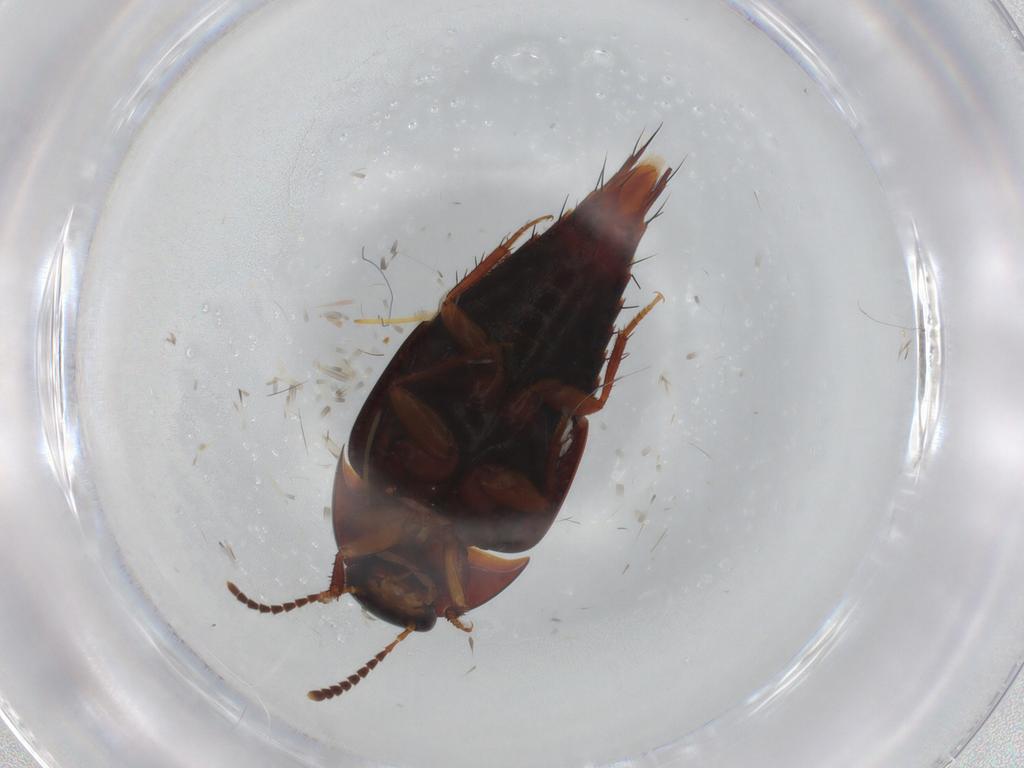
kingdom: Animalia
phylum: Arthropoda
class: Insecta
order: Coleoptera
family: Staphylinidae
